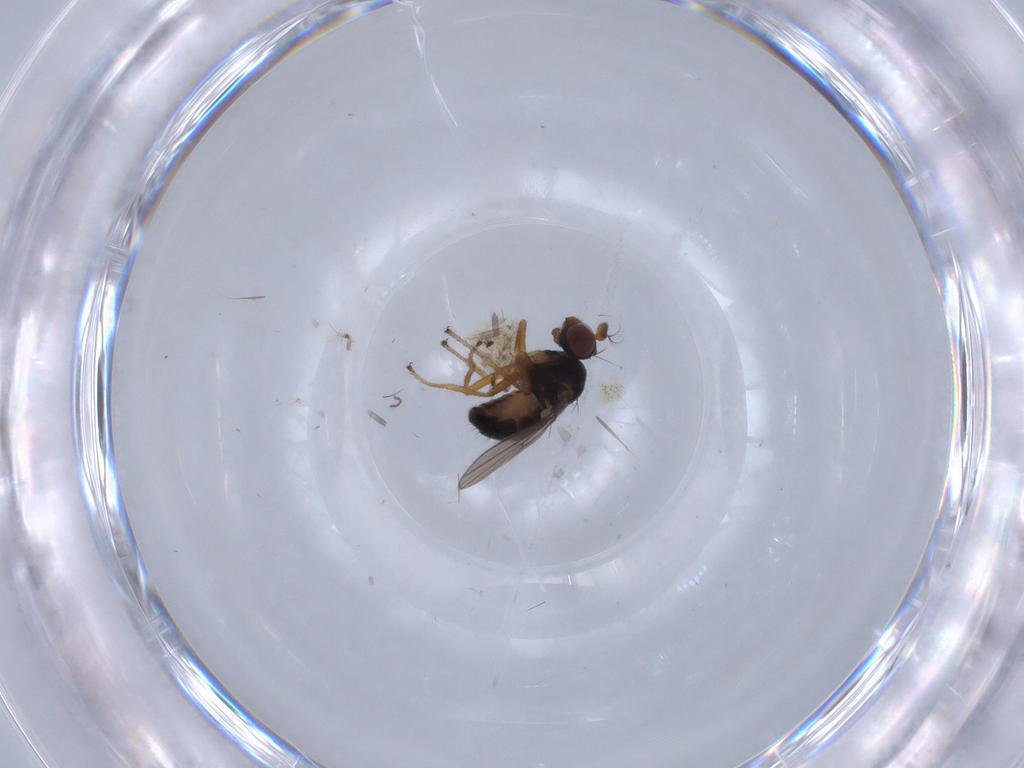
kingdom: Animalia
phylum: Arthropoda
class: Insecta
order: Diptera
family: Ephydridae
